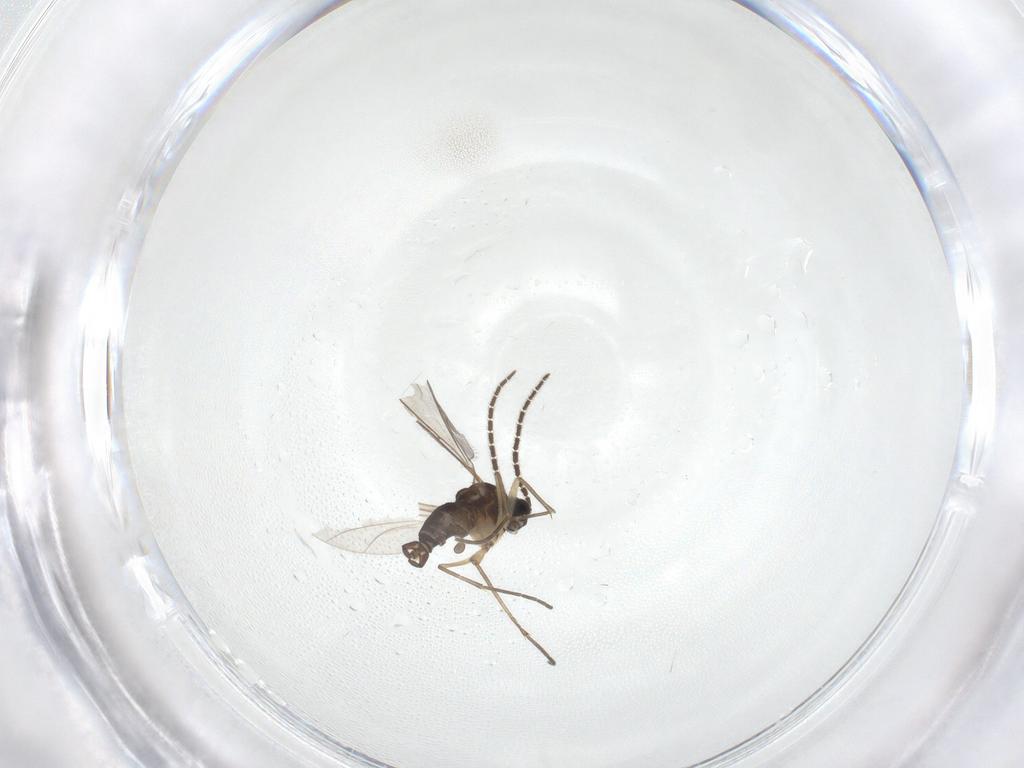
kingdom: Animalia
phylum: Arthropoda
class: Insecta
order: Diptera
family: Sciaridae
